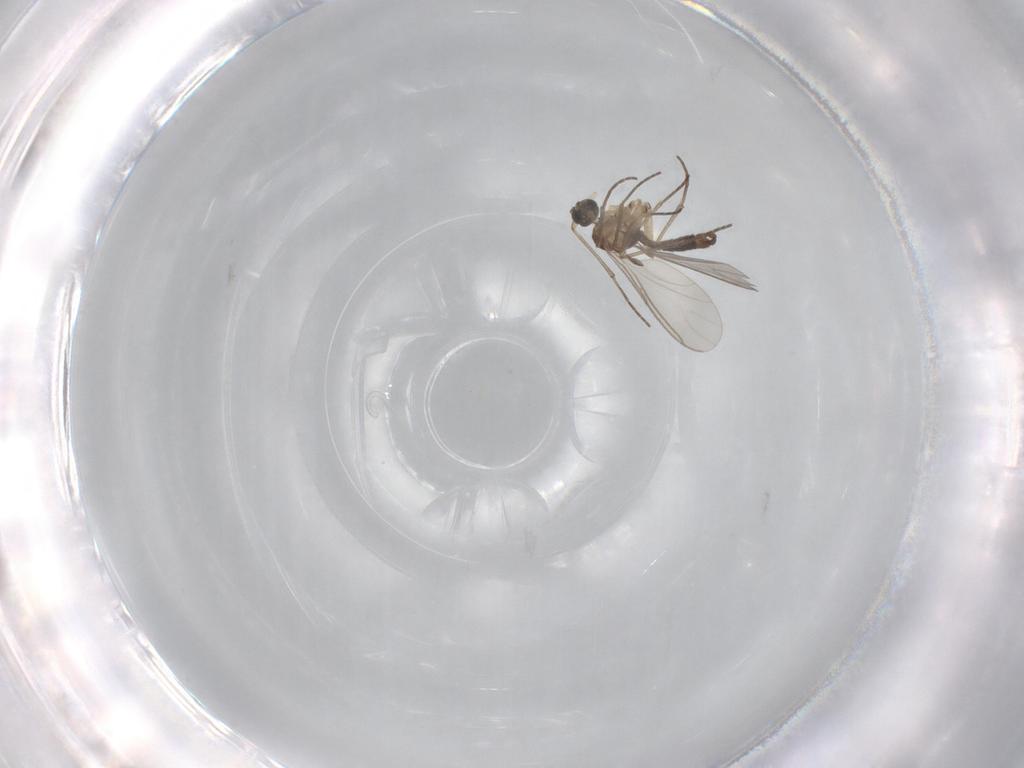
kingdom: Animalia
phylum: Arthropoda
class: Insecta
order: Diptera
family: Sciaridae
